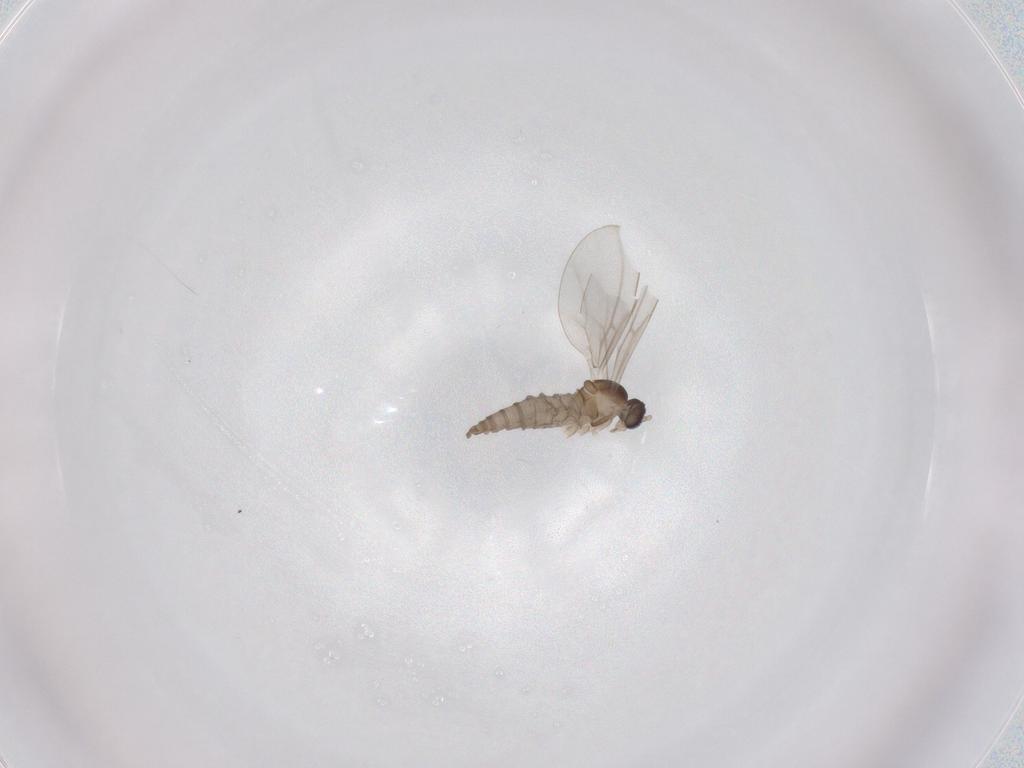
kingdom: Animalia
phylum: Arthropoda
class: Insecta
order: Diptera
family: Cecidomyiidae
